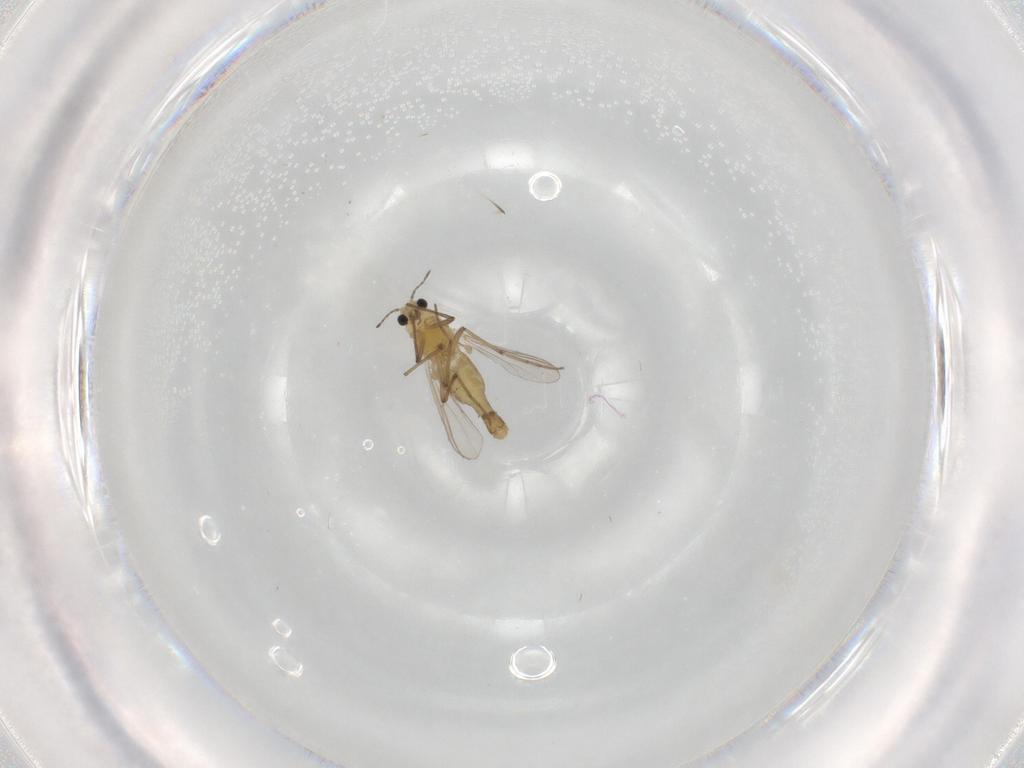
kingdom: Animalia
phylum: Arthropoda
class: Insecta
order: Diptera
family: Chironomidae
